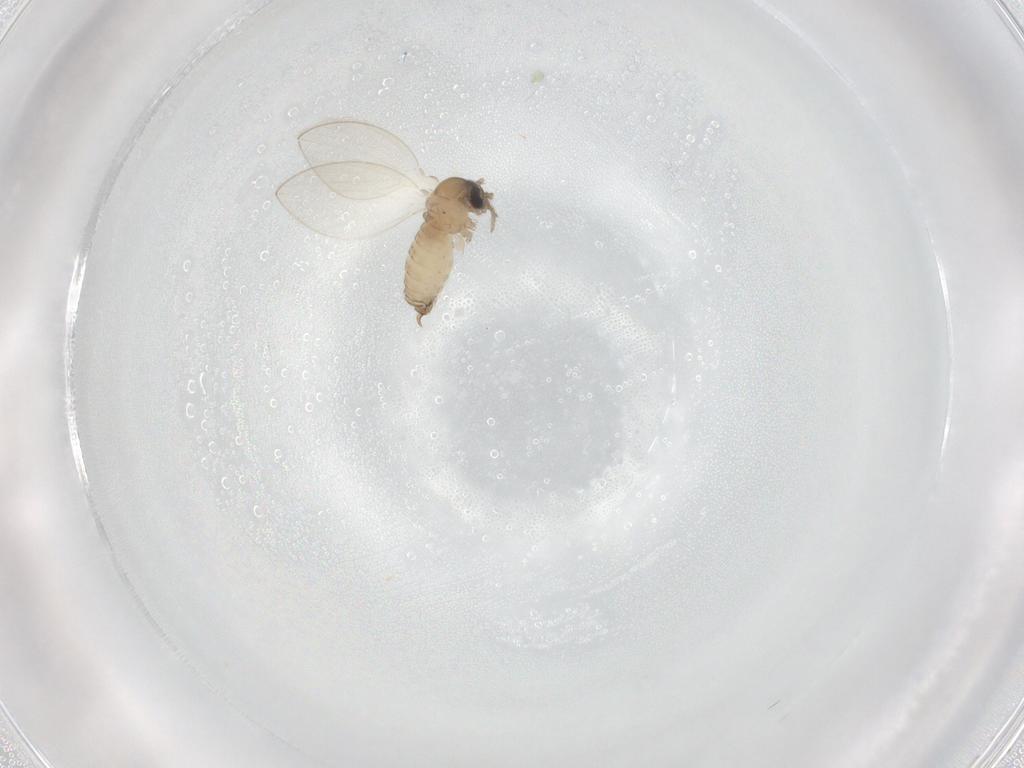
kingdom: Animalia
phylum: Arthropoda
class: Insecta
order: Diptera
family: Psychodidae
